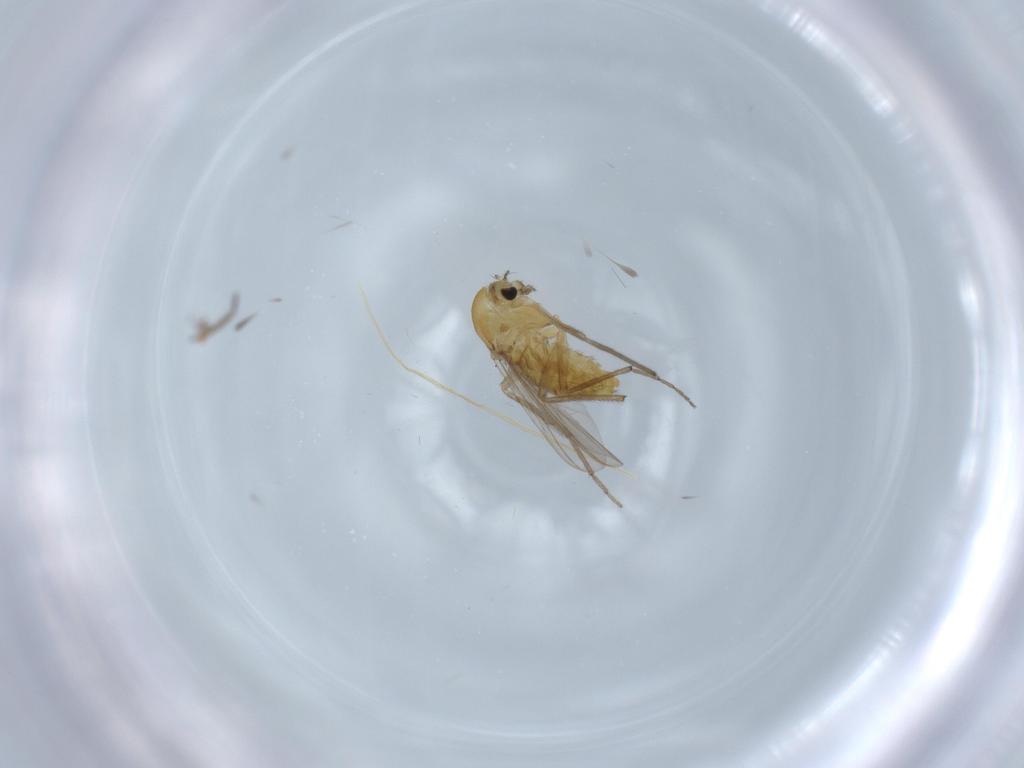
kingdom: Animalia
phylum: Arthropoda
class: Insecta
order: Diptera
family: Chironomidae
